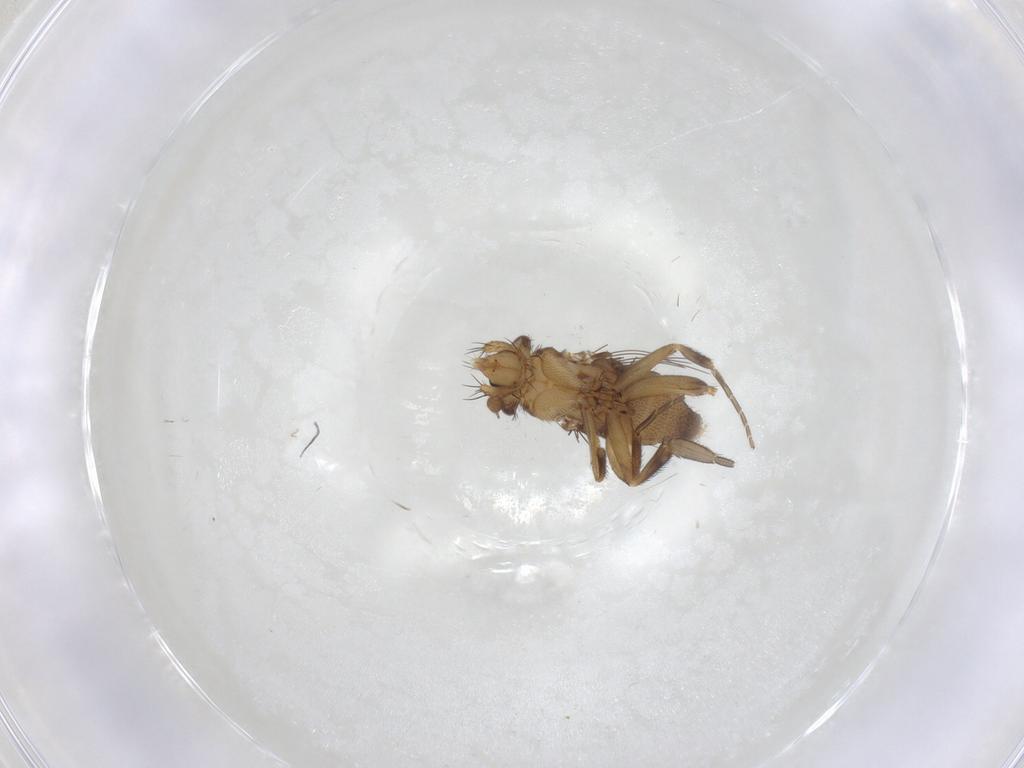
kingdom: Animalia
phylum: Arthropoda
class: Insecta
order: Diptera
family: Phoridae
